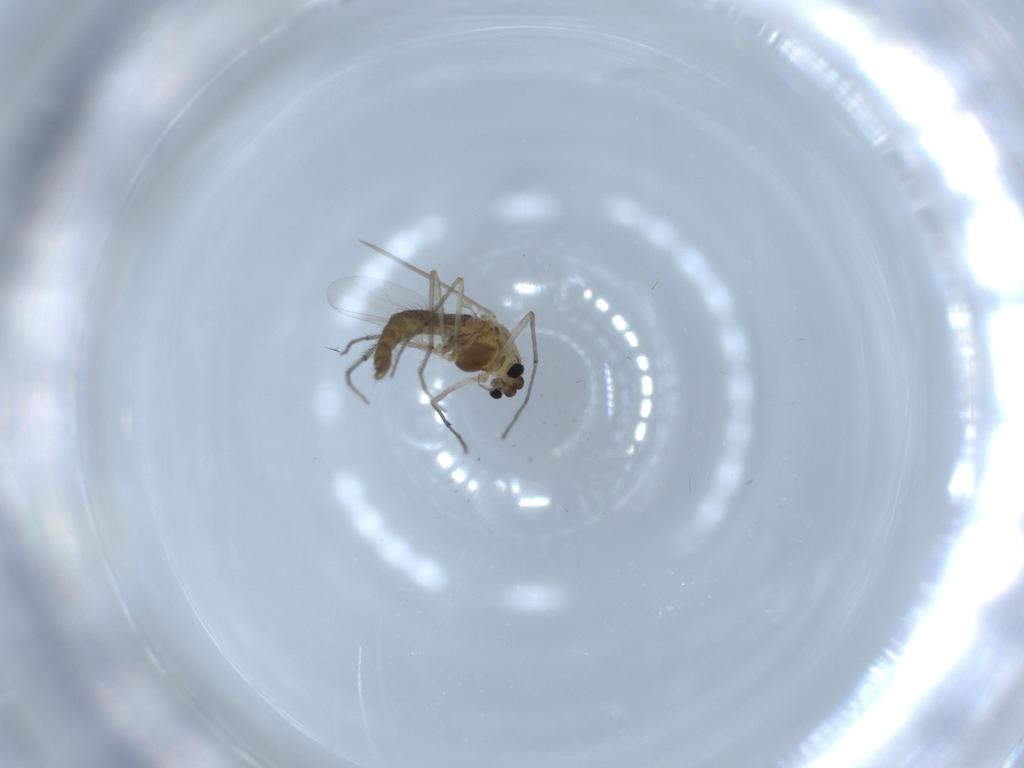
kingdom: Animalia
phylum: Arthropoda
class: Insecta
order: Diptera
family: Chironomidae
